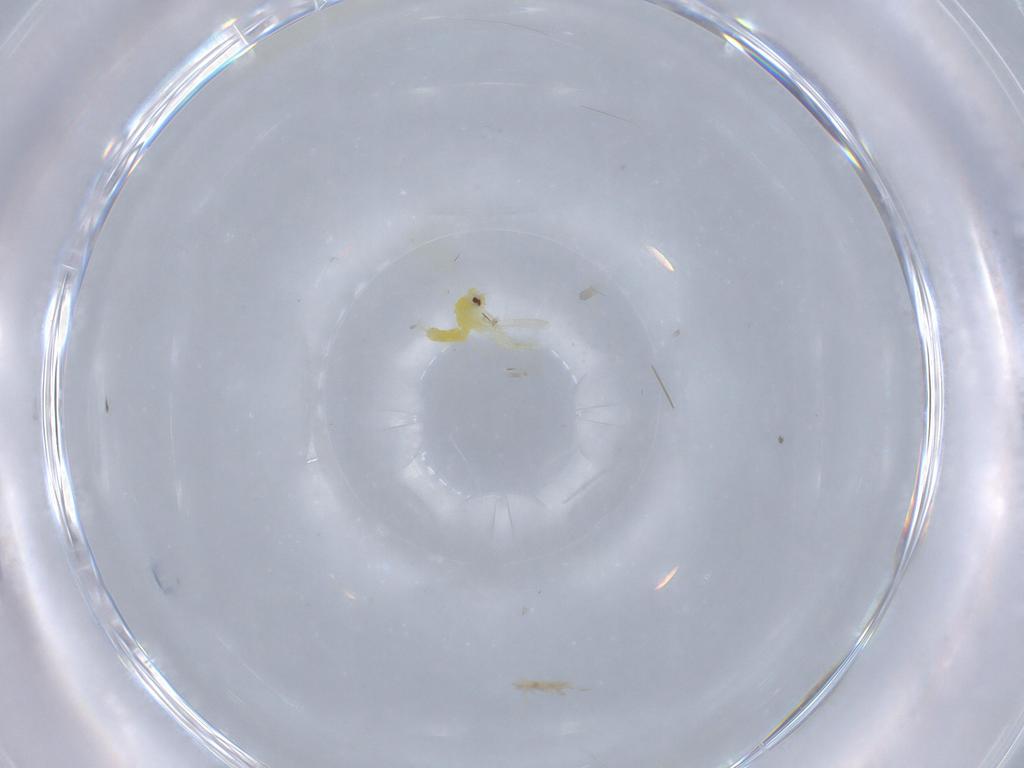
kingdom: Animalia
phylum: Arthropoda
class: Insecta
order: Hemiptera
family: Aleyrodidae
